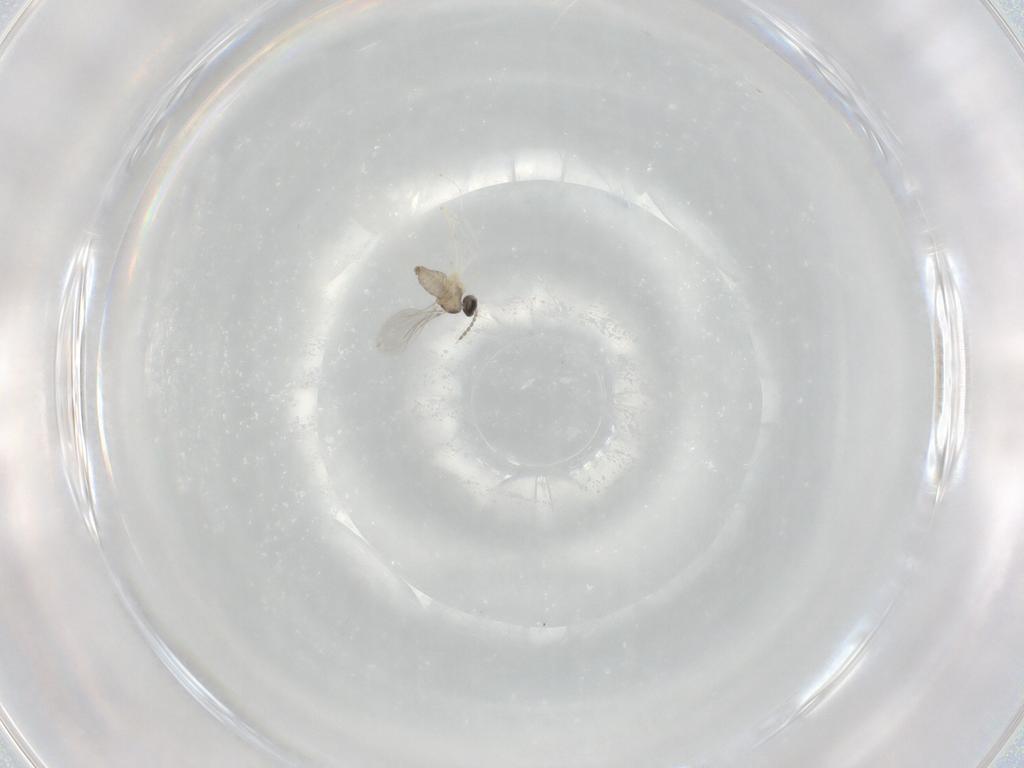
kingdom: Animalia
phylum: Arthropoda
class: Insecta
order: Diptera
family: Cecidomyiidae
